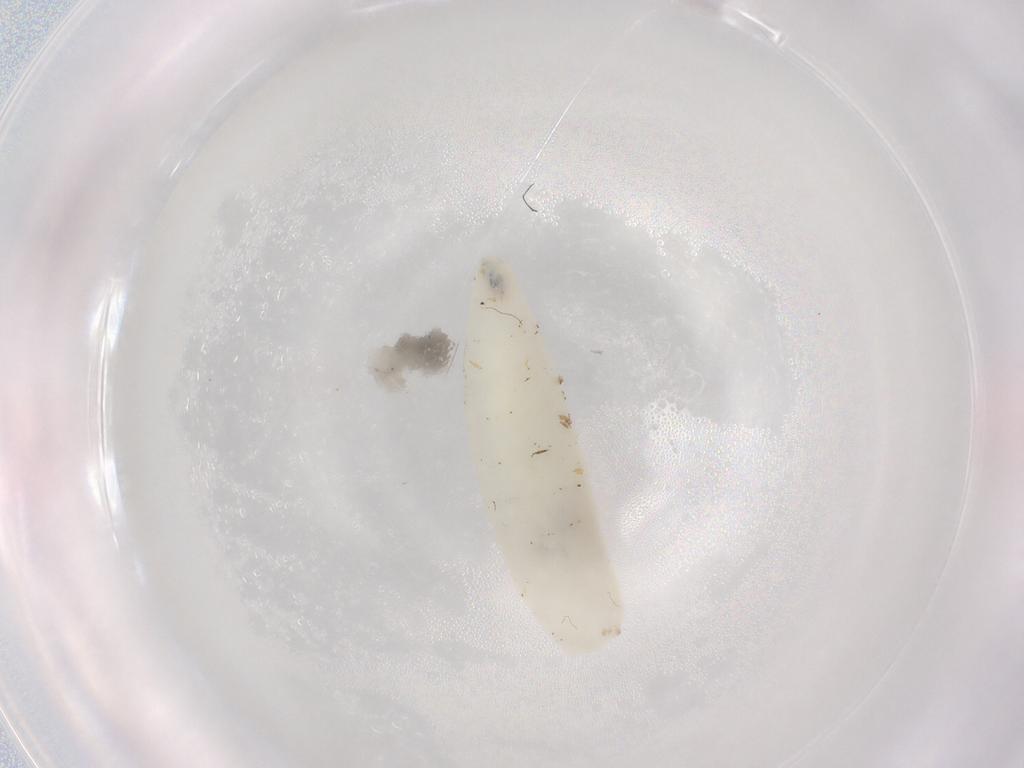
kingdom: Animalia
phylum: Arthropoda
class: Insecta
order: Diptera
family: Anthomyiidae
